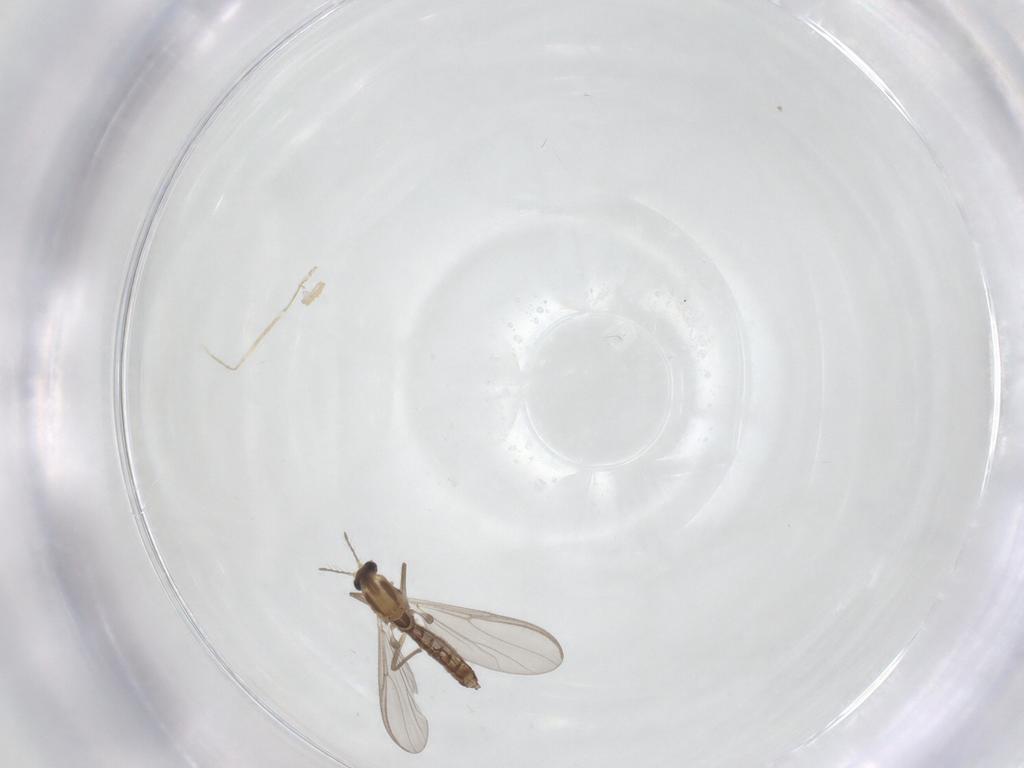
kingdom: Animalia
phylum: Arthropoda
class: Insecta
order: Diptera
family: Chironomidae
